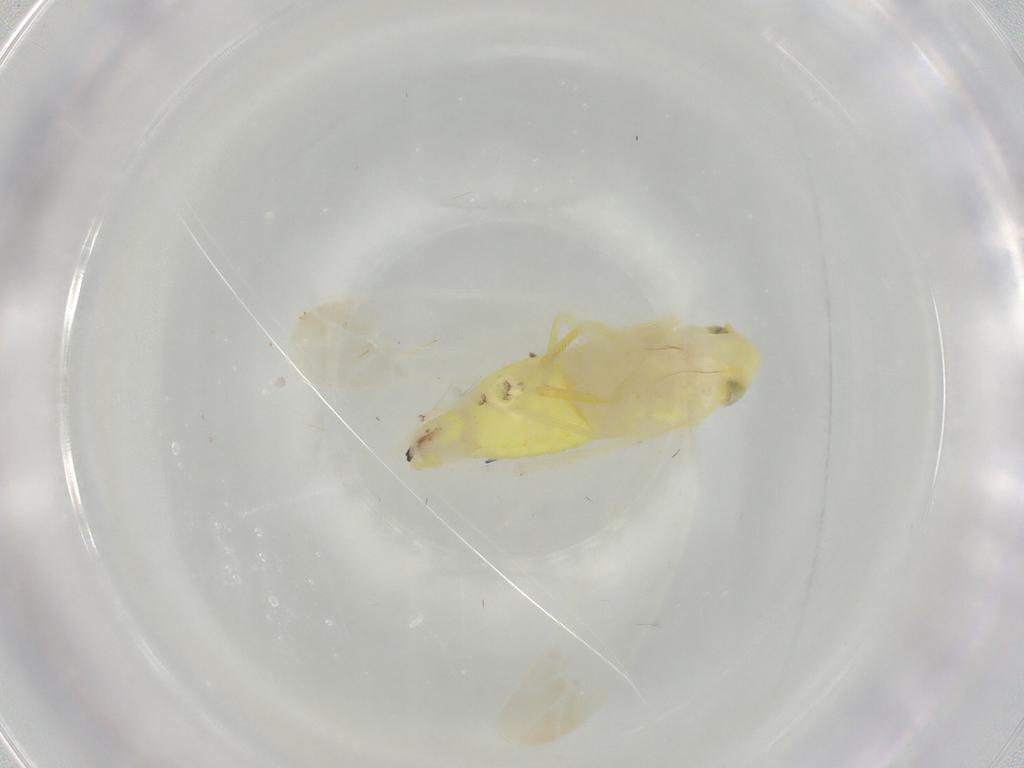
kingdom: Animalia
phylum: Arthropoda
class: Insecta
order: Hemiptera
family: Cicadellidae
